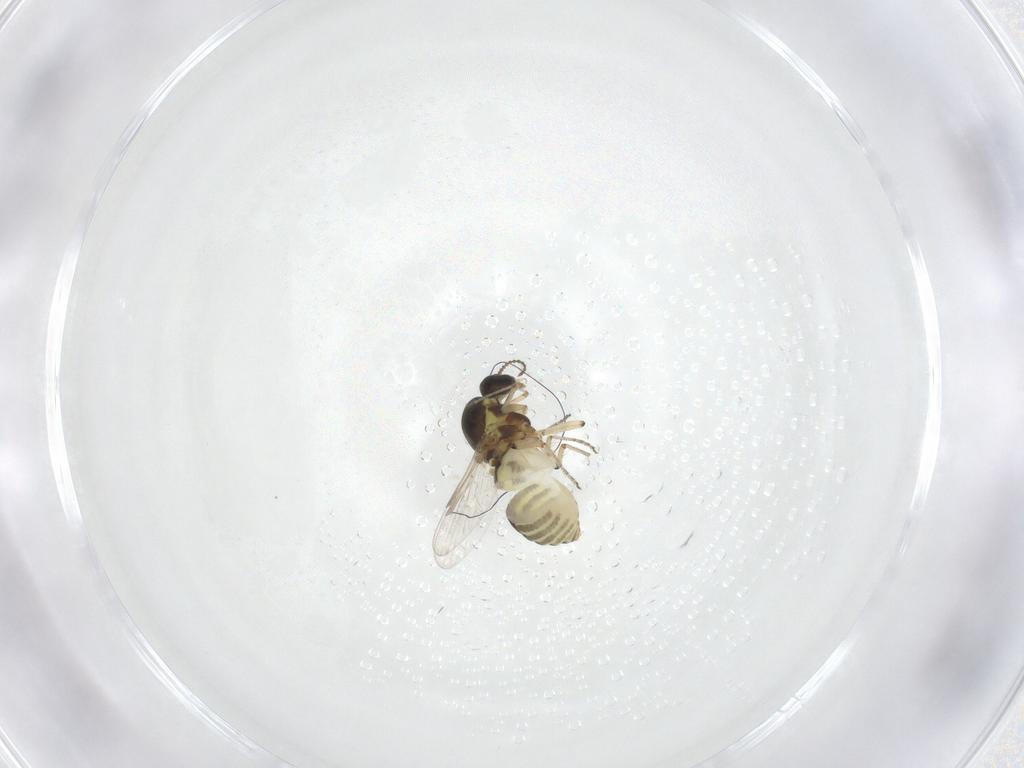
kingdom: Animalia
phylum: Arthropoda
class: Insecta
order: Diptera
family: Ceratopogonidae
